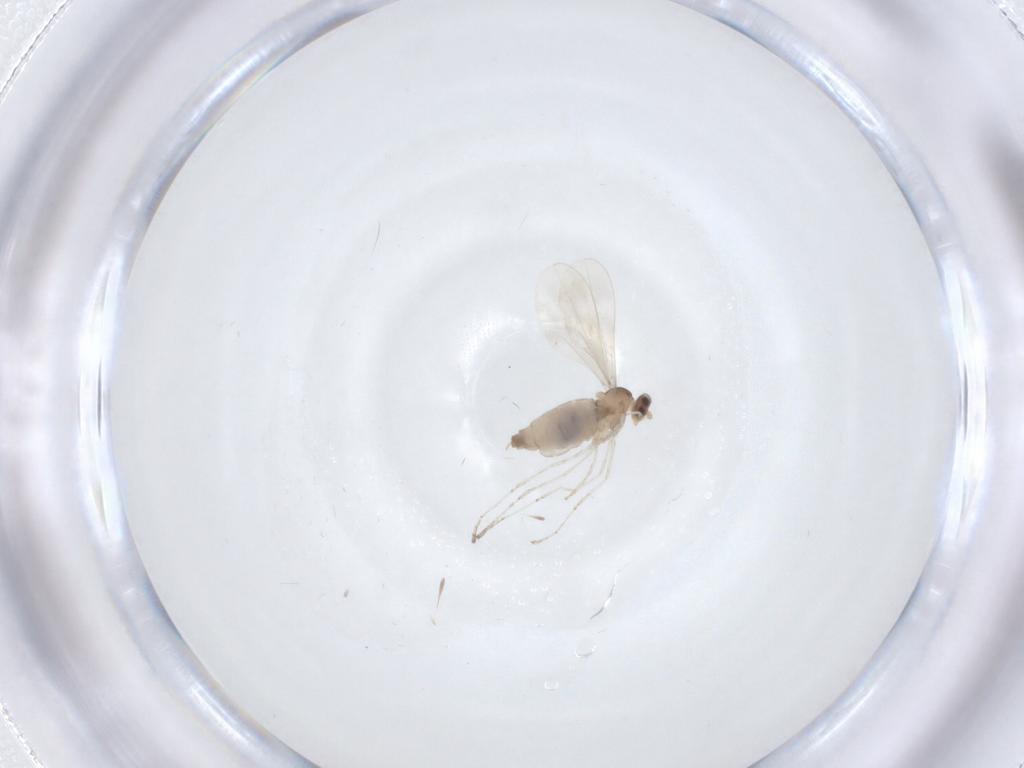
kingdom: Animalia
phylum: Arthropoda
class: Insecta
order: Diptera
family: Cecidomyiidae
